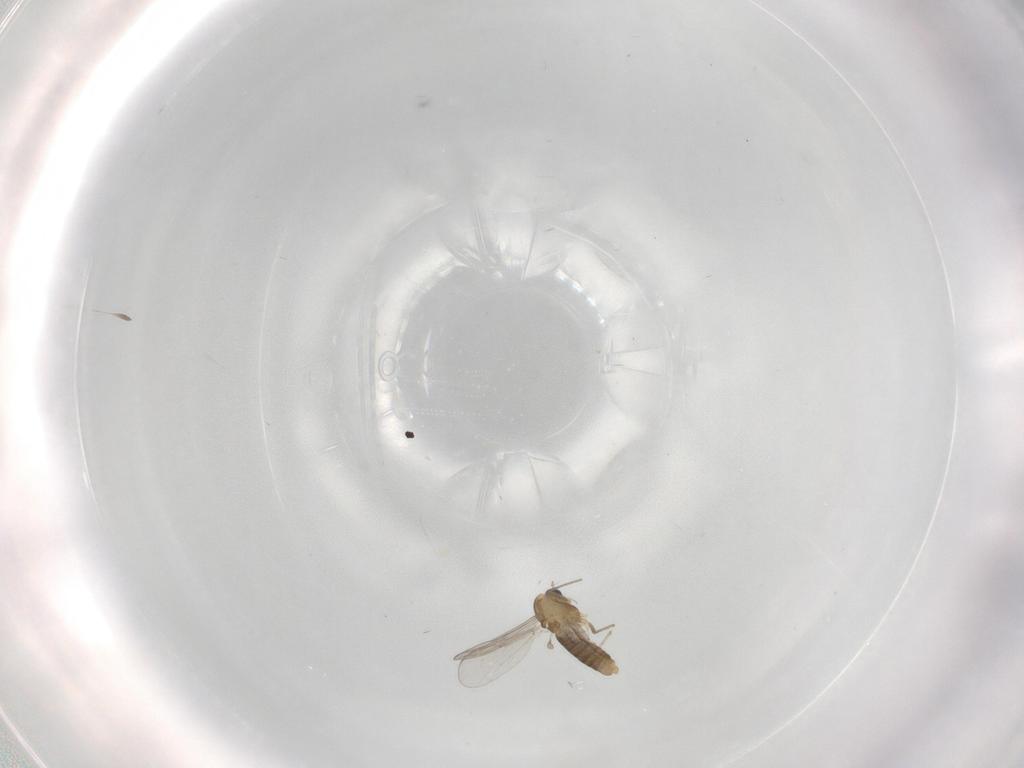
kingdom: Animalia
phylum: Arthropoda
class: Insecta
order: Diptera
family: Chironomidae
